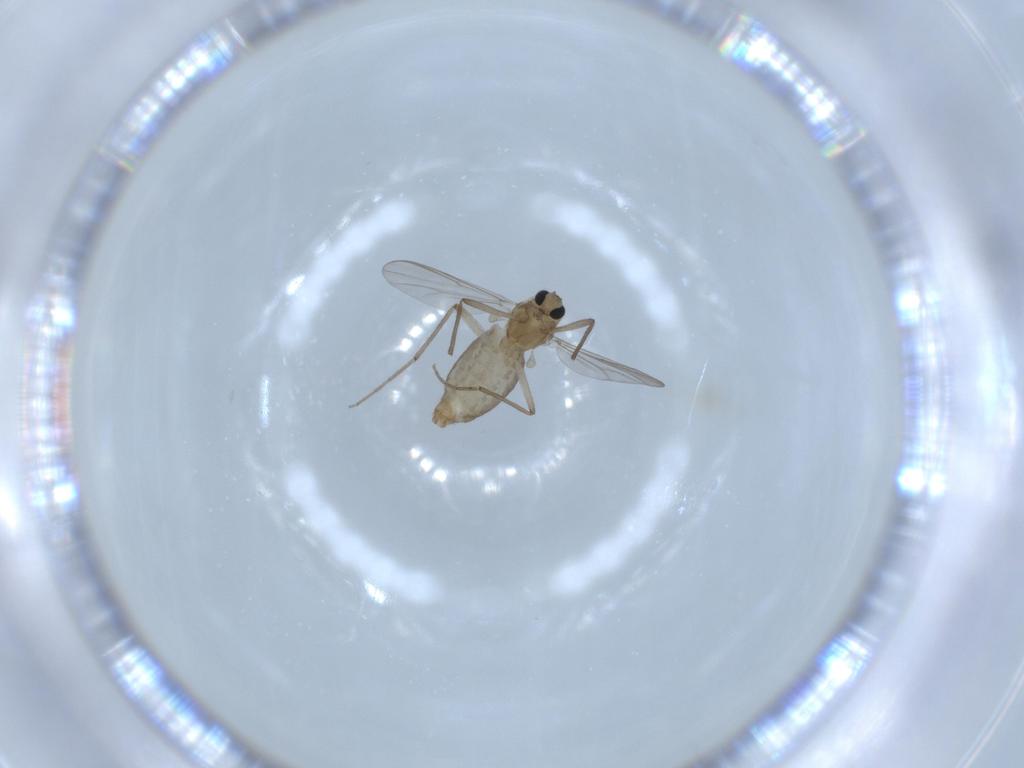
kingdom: Animalia
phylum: Arthropoda
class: Insecta
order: Diptera
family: Chironomidae
